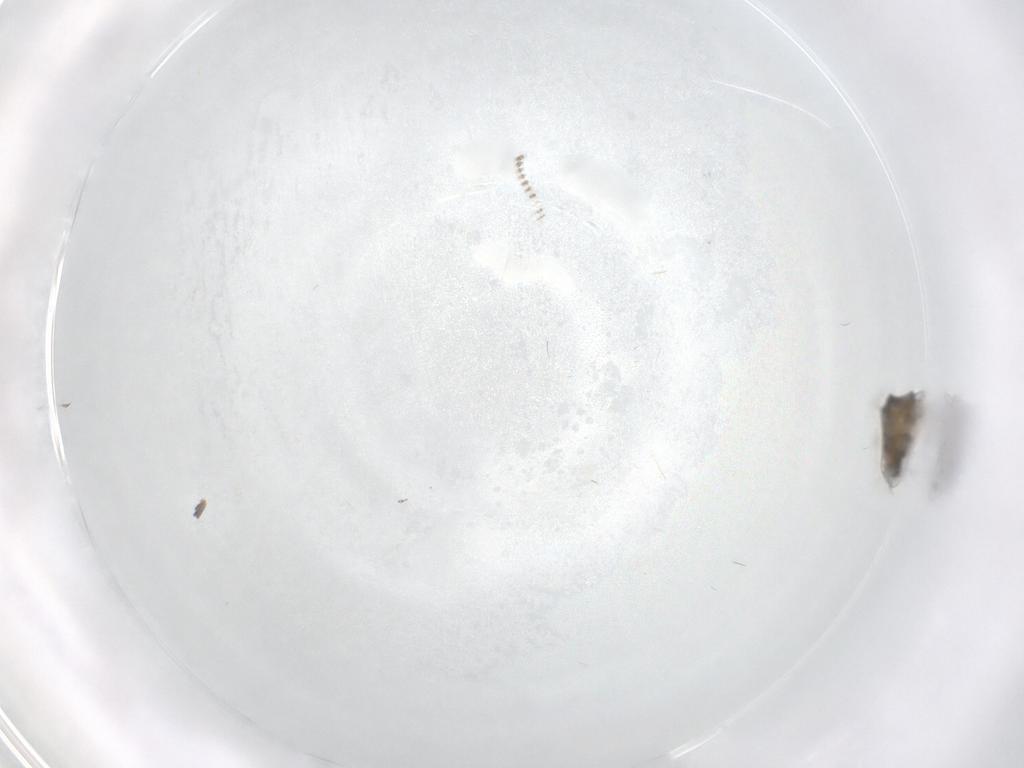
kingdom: Animalia
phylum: Arthropoda
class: Insecta
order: Diptera
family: Psychodidae
